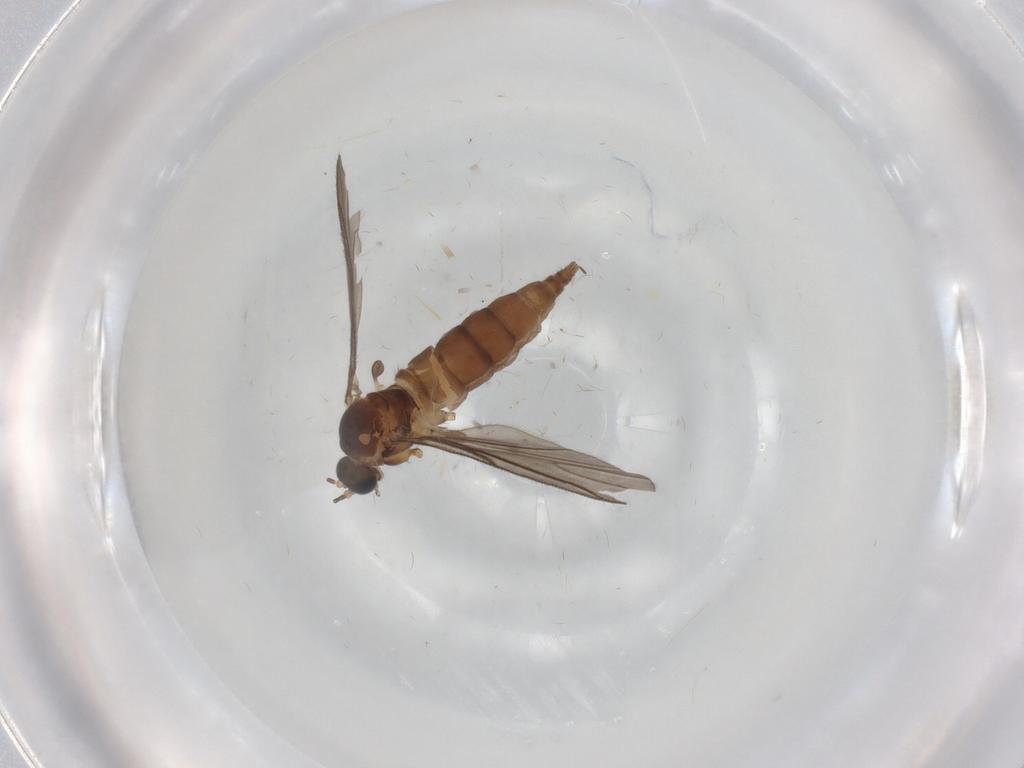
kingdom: Animalia
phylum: Arthropoda
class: Insecta
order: Diptera
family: Sciaridae
